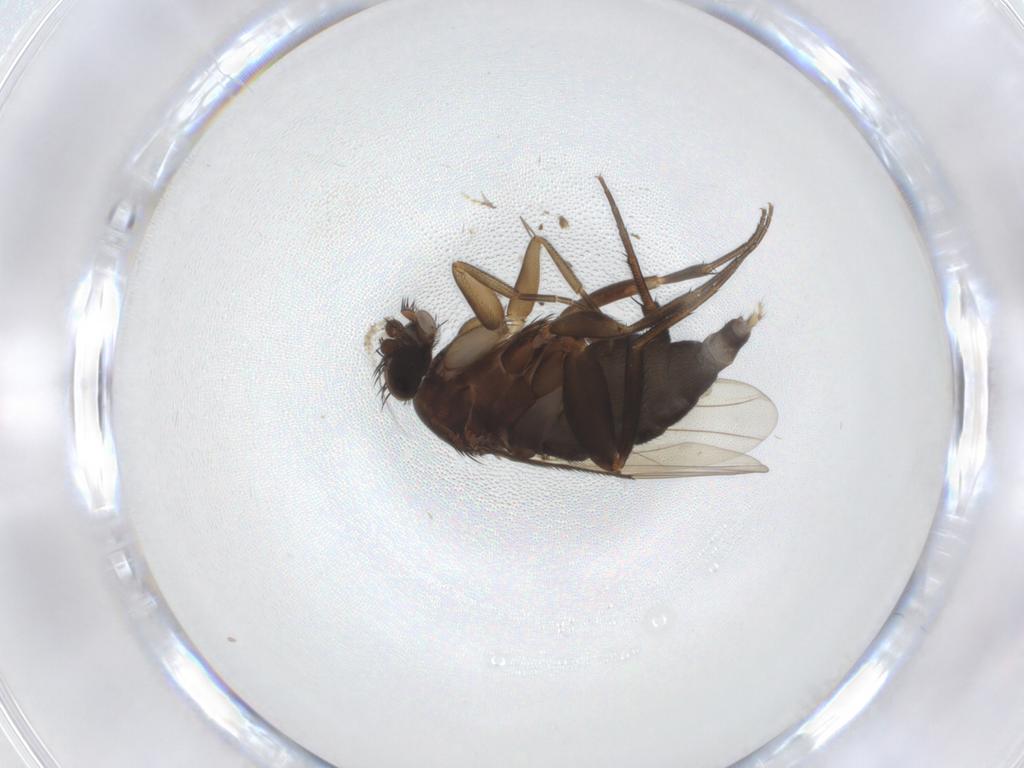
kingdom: Animalia
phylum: Arthropoda
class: Insecta
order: Diptera
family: Phoridae
